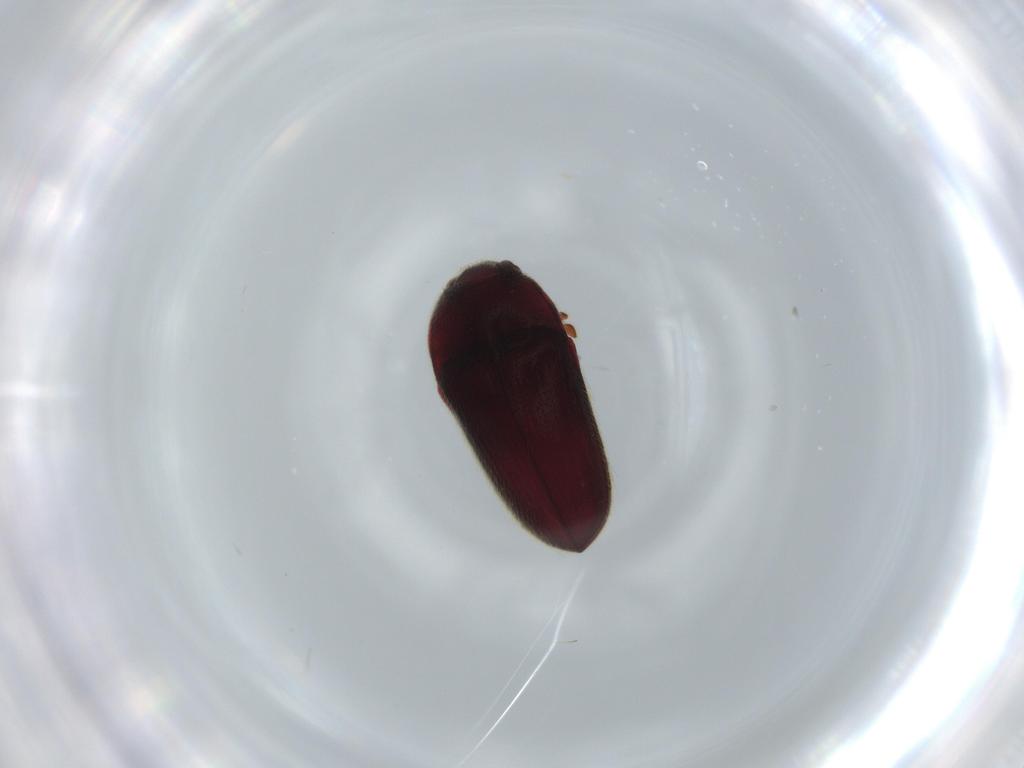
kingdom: Animalia
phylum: Arthropoda
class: Insecta
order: Coleoptera
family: Throscidae
